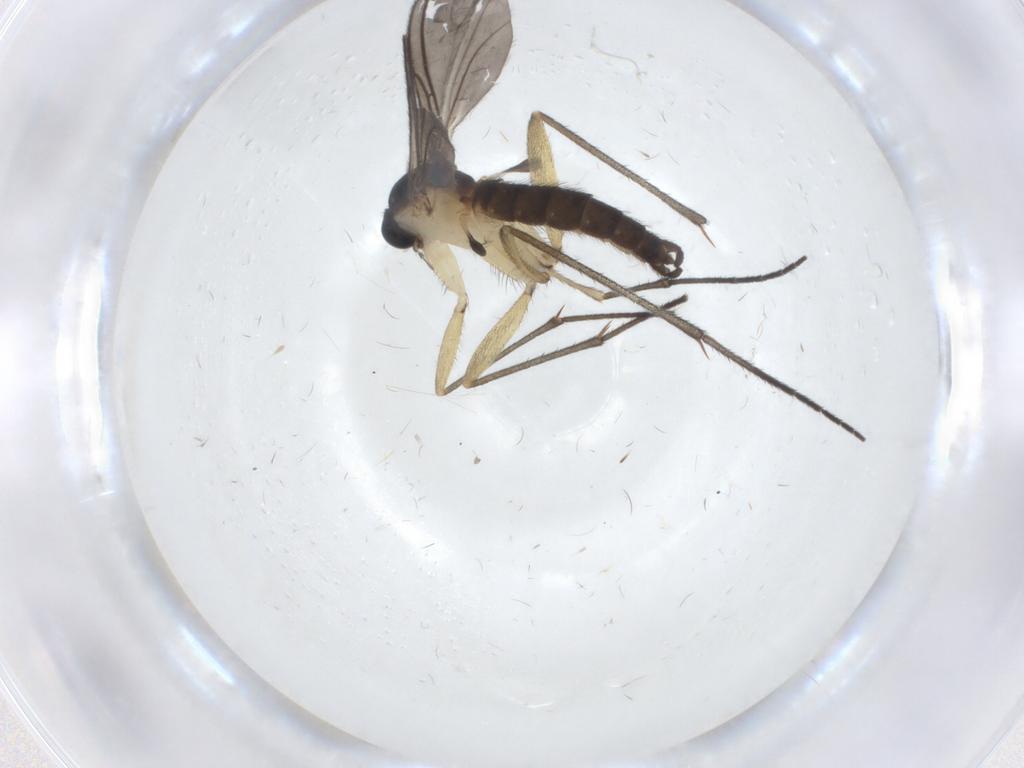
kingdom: Animalia
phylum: Arthropoda
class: Insecta
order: Diptera
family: Sciaridae
